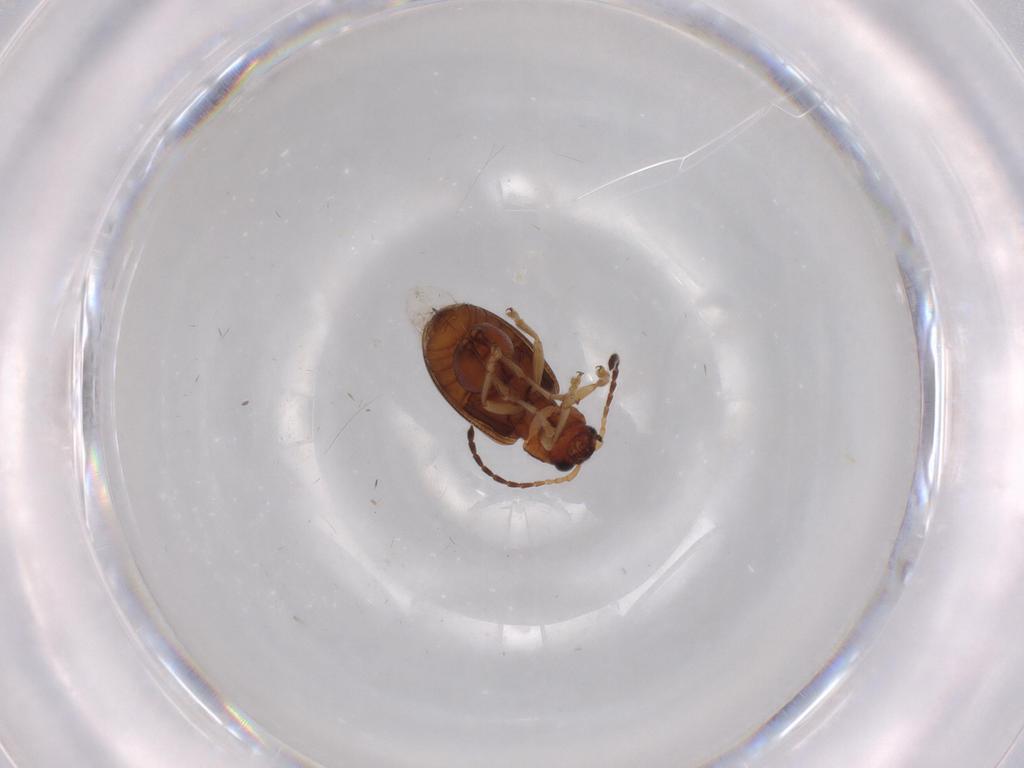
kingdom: Animalia
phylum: Arthropoda
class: Insecta
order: Coleoptera
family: Chrysomelidae
